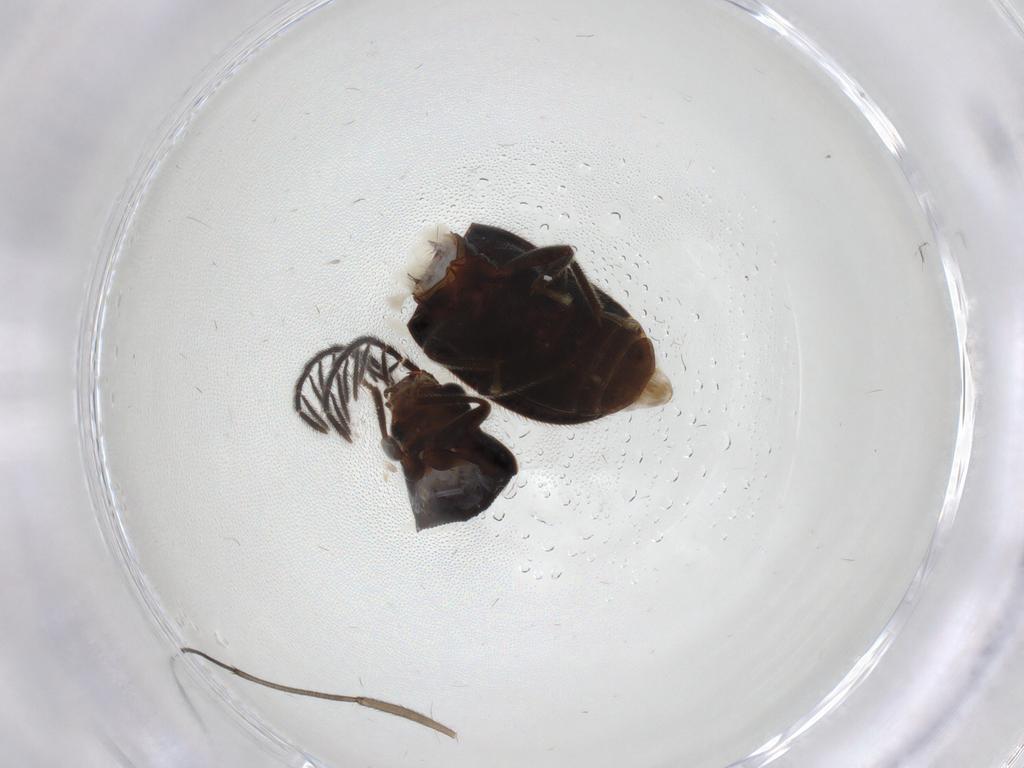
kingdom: Animalia
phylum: Arthropoda
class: Insecta
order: Coleoptera
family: Ptilodactylidae
